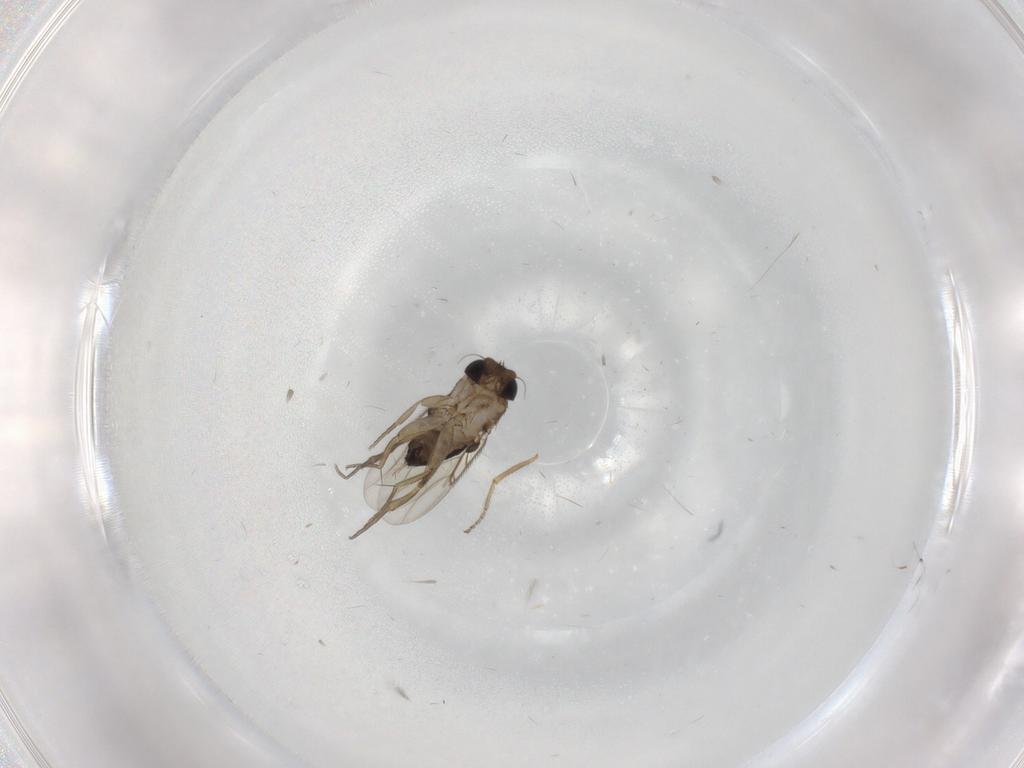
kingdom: Animalia
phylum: Arthropoda
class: Insecta
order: Diptera
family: Phoridae
